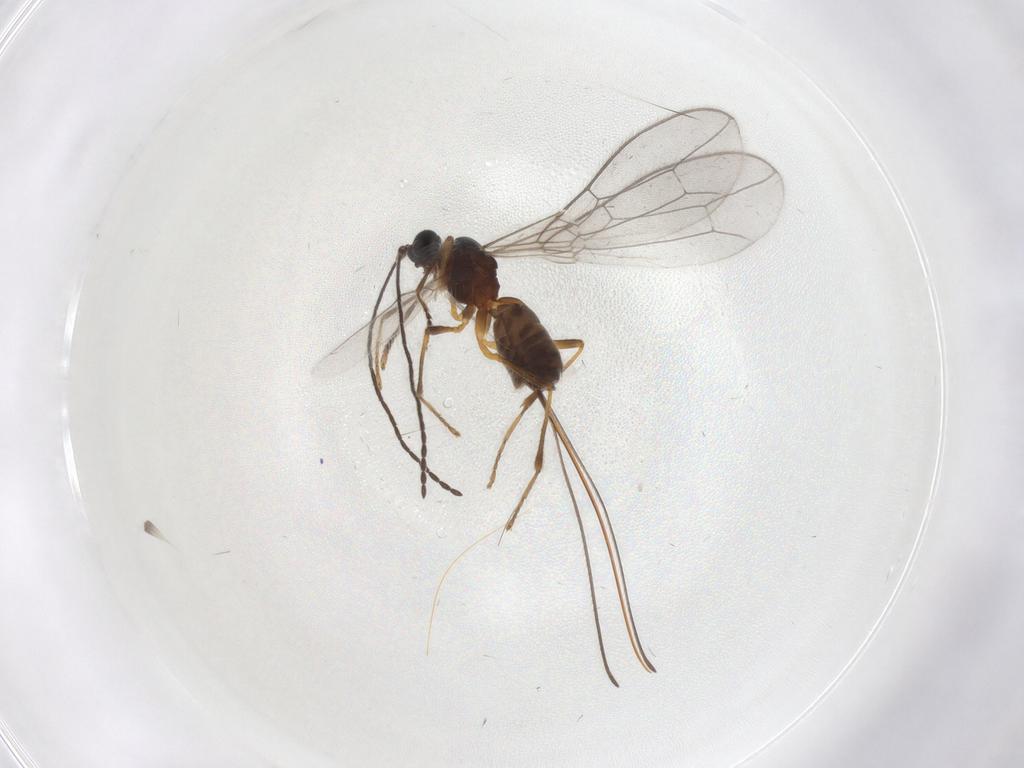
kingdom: Animalia
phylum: Arthropoda
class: Insecta
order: Hymenoptera
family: Braconidae
